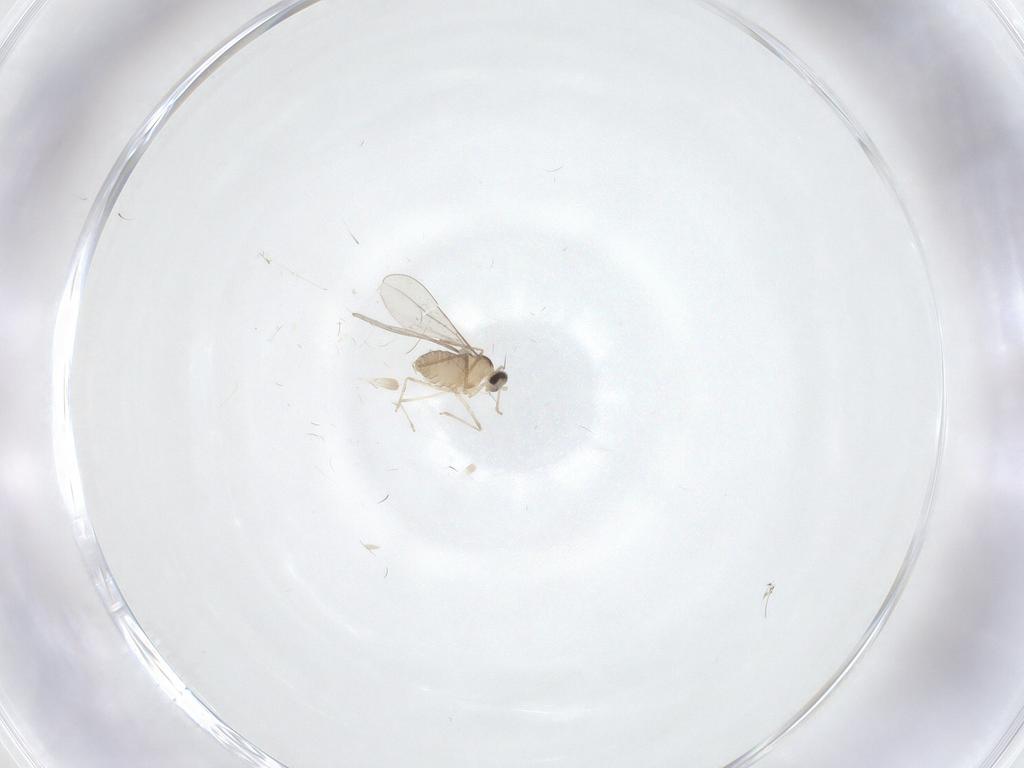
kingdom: Animalia
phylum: Arthropoda
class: Insecta
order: Diptera
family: Cecidomyiidae
